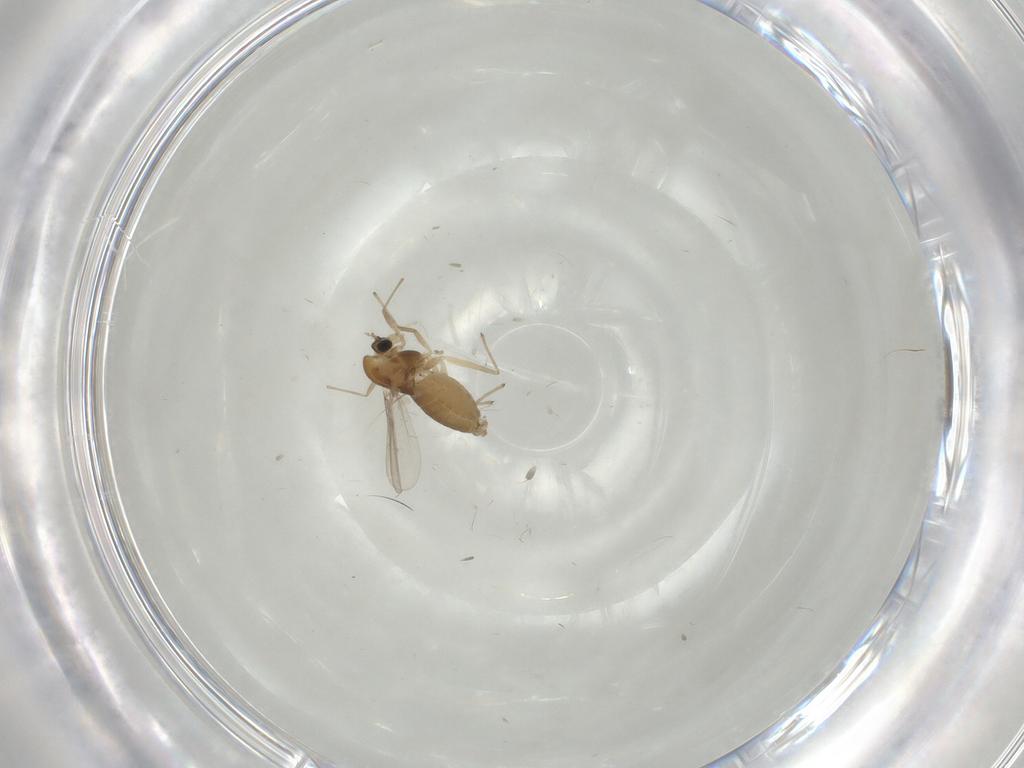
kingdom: Animalia
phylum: Arthropoda
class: Insecta
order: Diptera
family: Chironomidae
